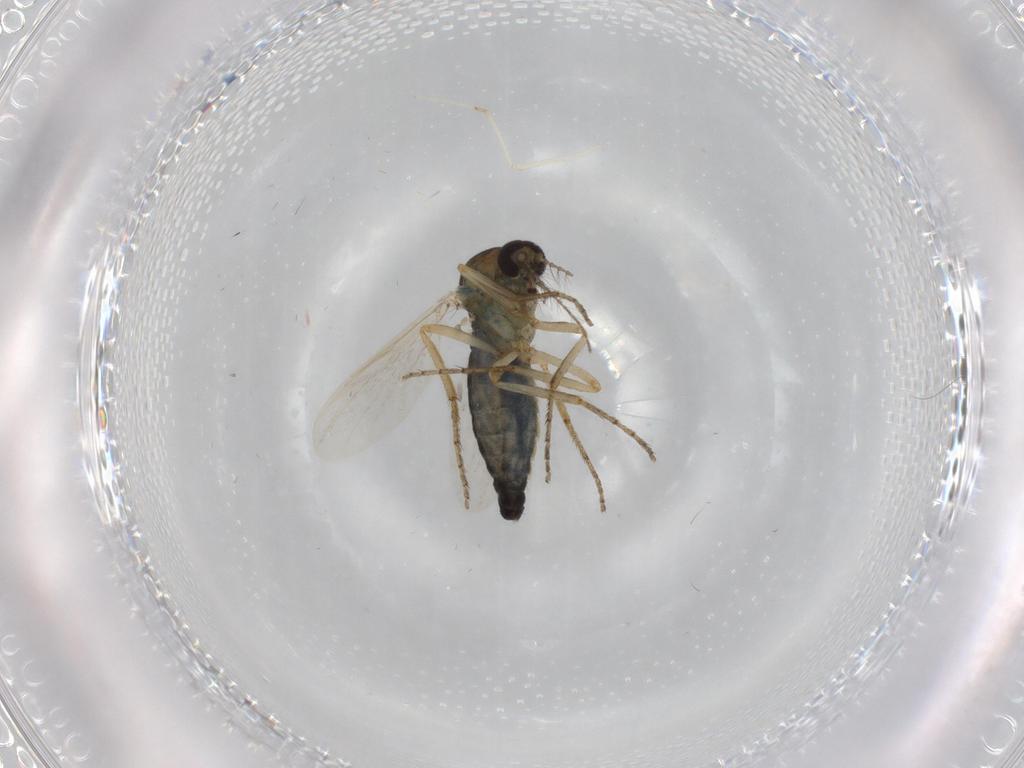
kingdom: Animalia
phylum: Arthropoda
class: Insecta
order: Diptera
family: Ceratopogonidae
